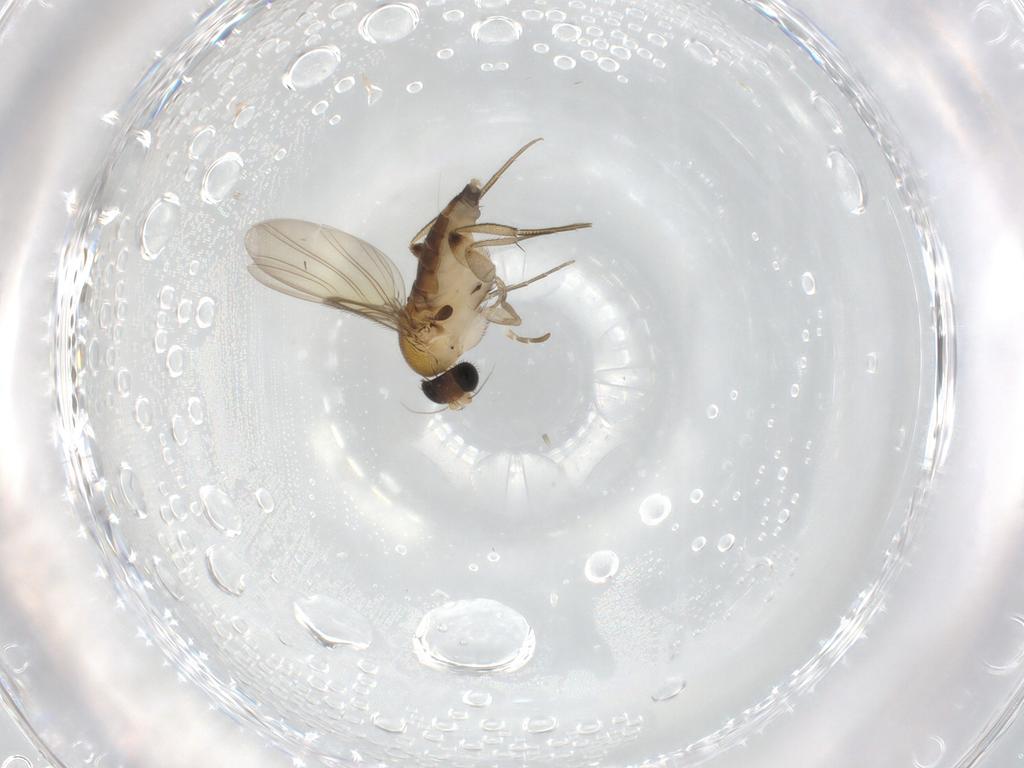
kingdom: Animalia
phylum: Arthropoda
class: Insecta
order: Diptera
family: Phoridae
